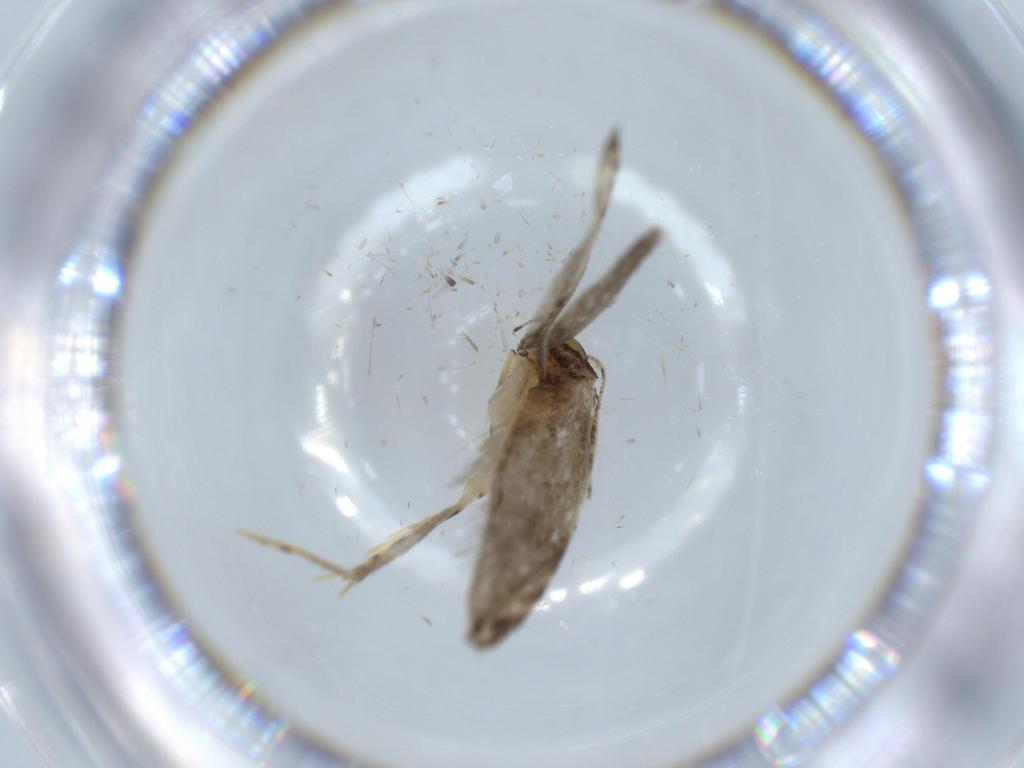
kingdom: Animalia
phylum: Arthropoda
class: Insecta
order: Lepidoptera
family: Tineidae
